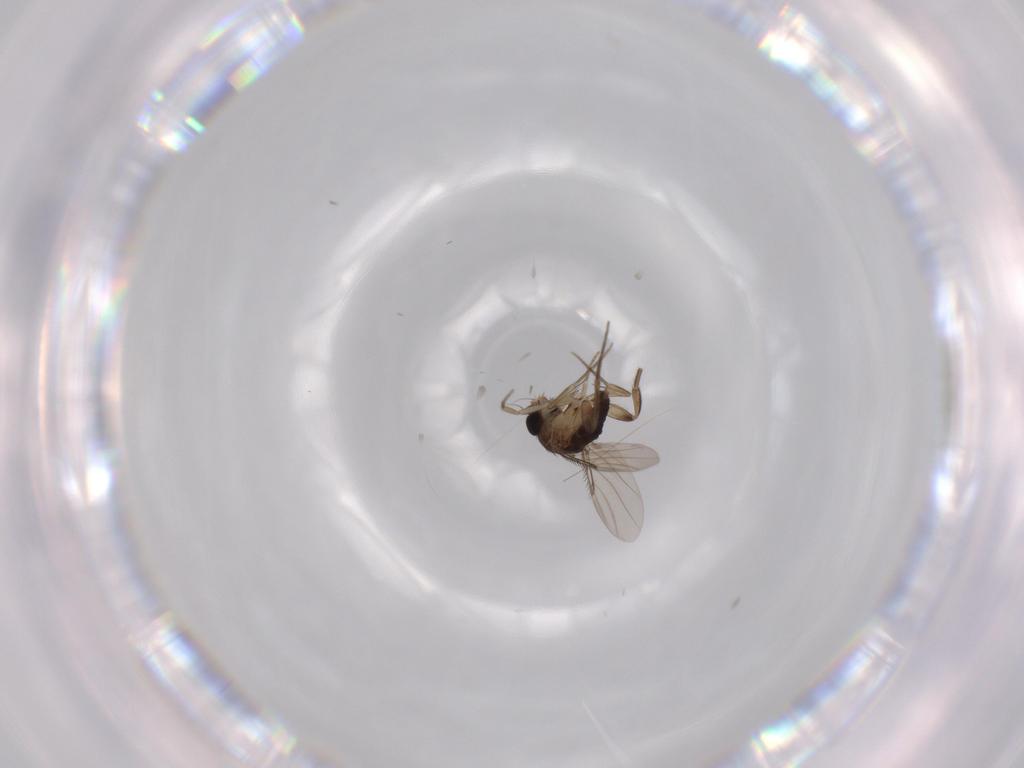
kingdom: Animalia
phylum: Arthropoda
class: Insecta
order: Diptera
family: Phoridae
